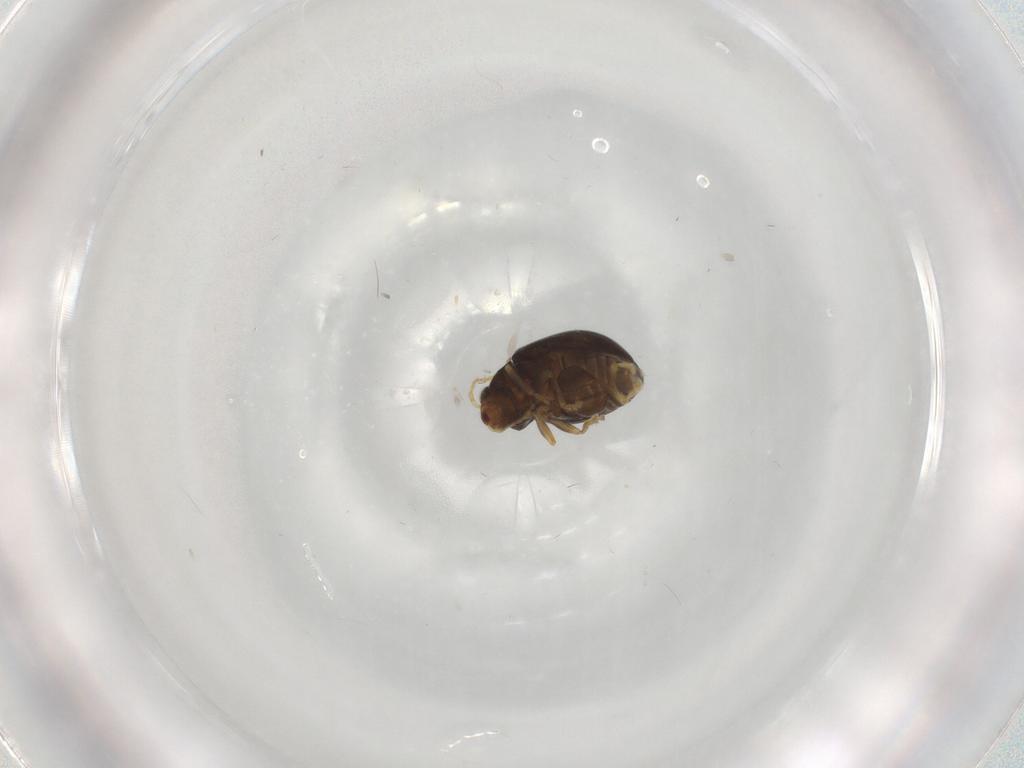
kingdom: Animalia
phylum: Arthropoda
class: Insecta
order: Coleoptera
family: Chrysomelidae
